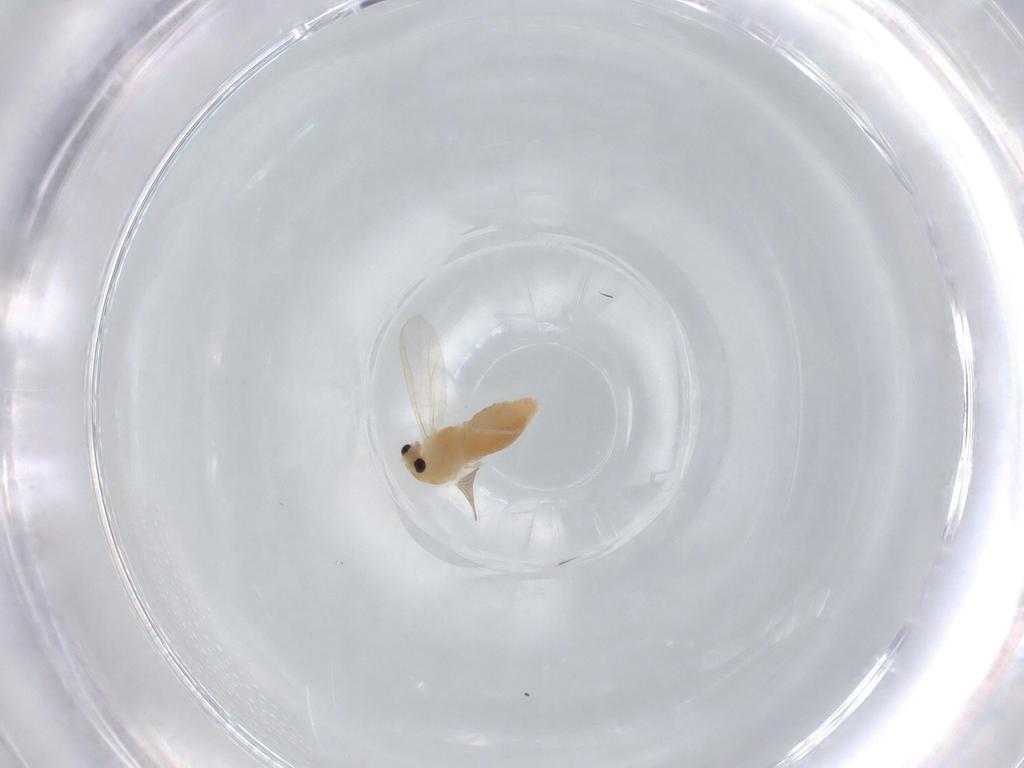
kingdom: Animalia
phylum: Arthropoda
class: Insecta
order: Diptera
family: Chironomidae
